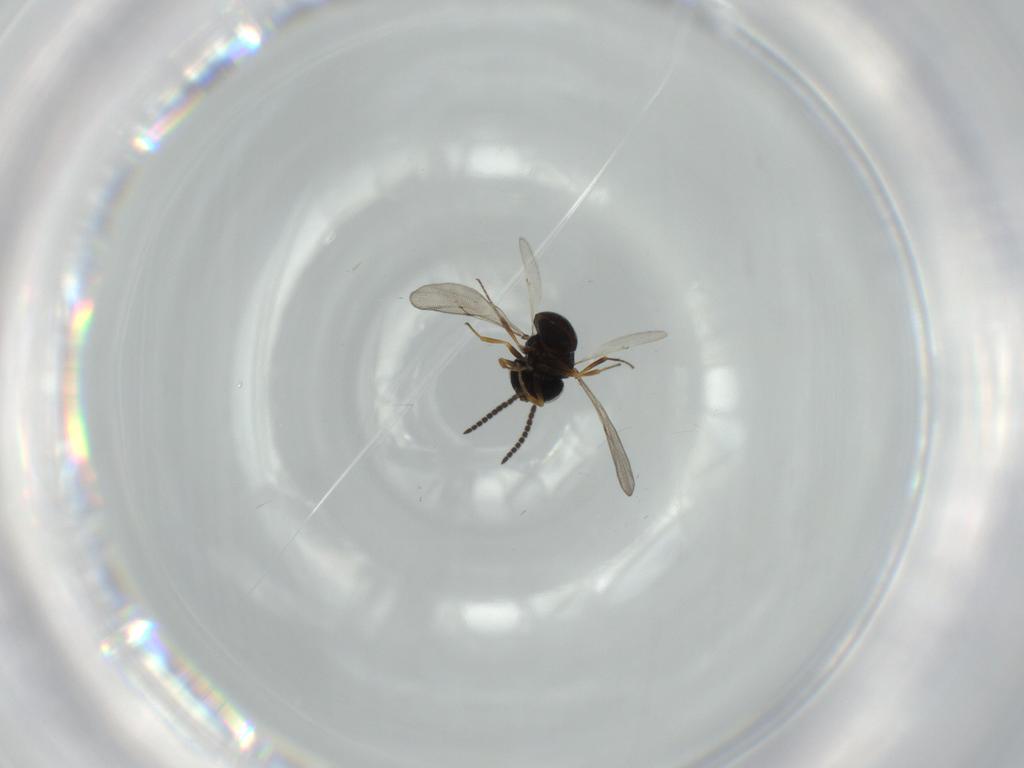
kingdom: Animalia
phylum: Arthropoda
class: Insecta
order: Hymenoptera
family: Scelionidae
